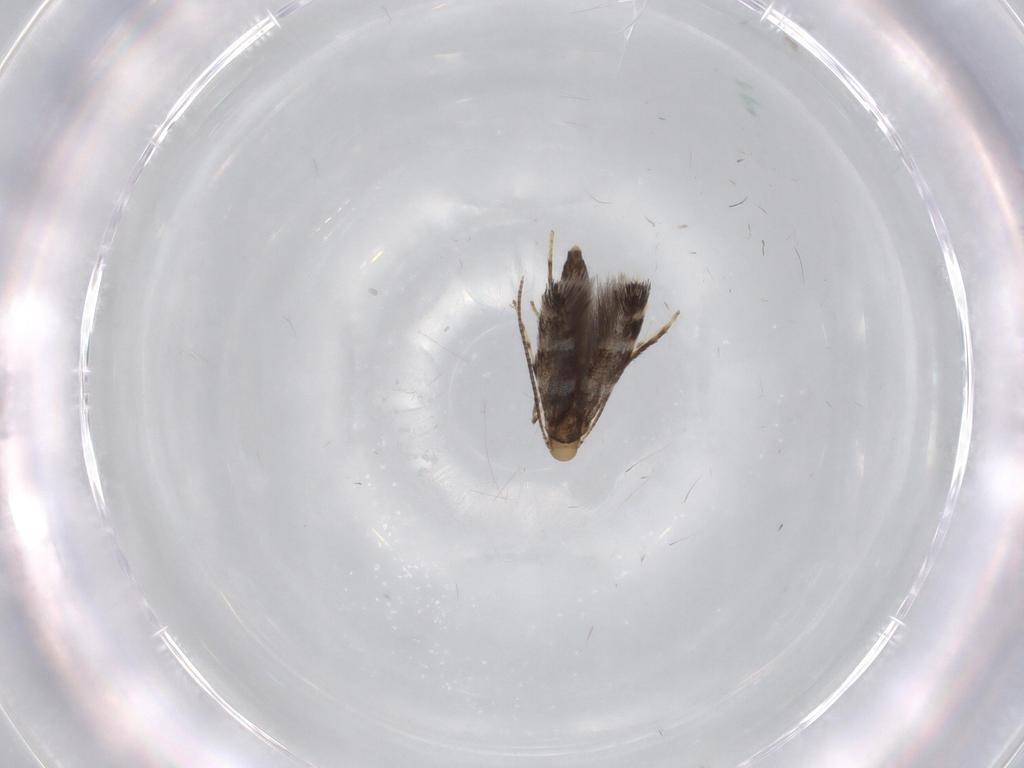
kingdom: Animalia
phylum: Arthropoda
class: Insecta
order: Lepidoptera
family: Gracillariidae
